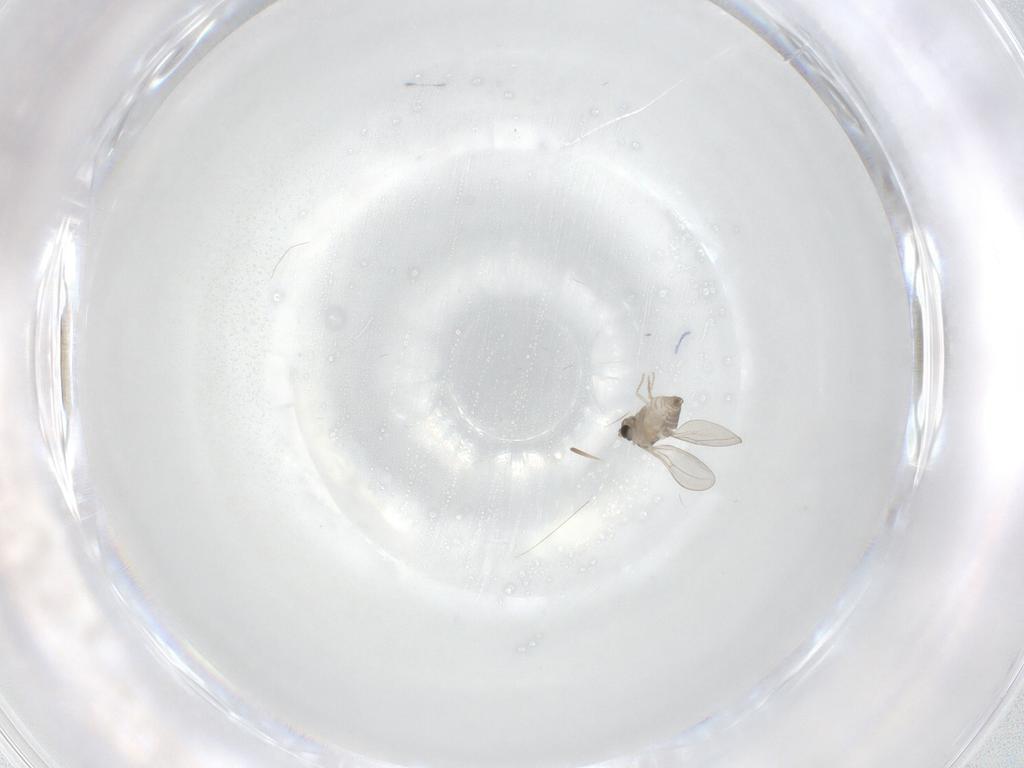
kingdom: Animalia
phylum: Arthropoda
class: Insecta
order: Diptera
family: Cecidomyiidae
